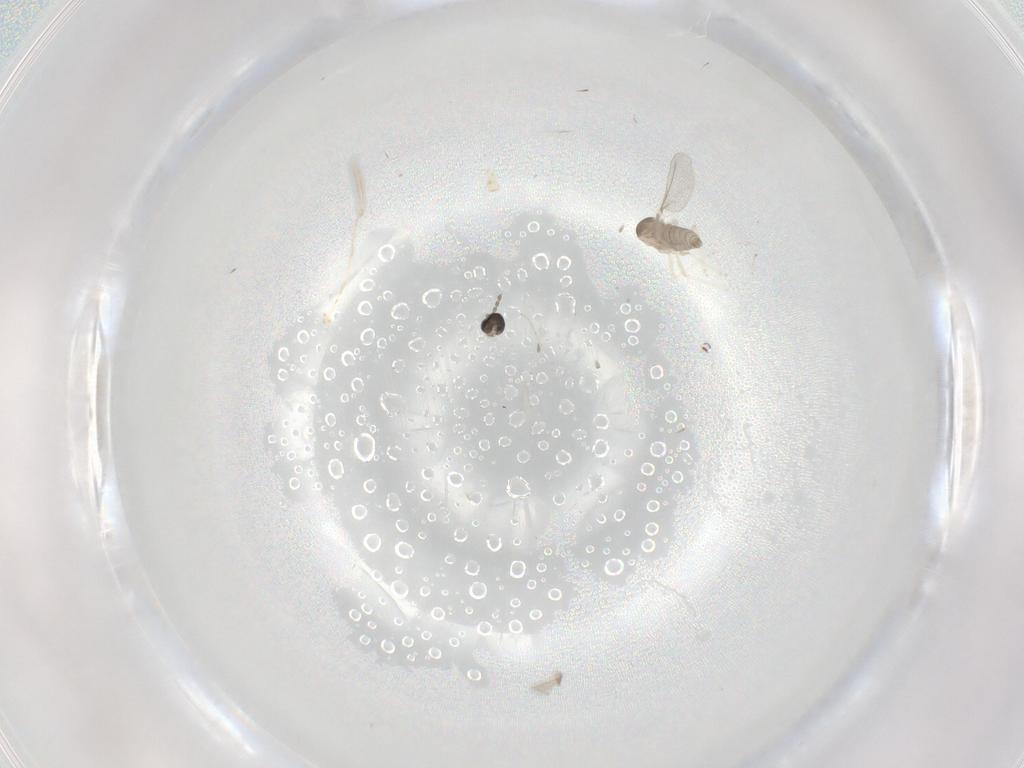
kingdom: Animalia
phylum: Arthropoda
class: Insecta
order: Diptera
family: Cecidomyiidae
